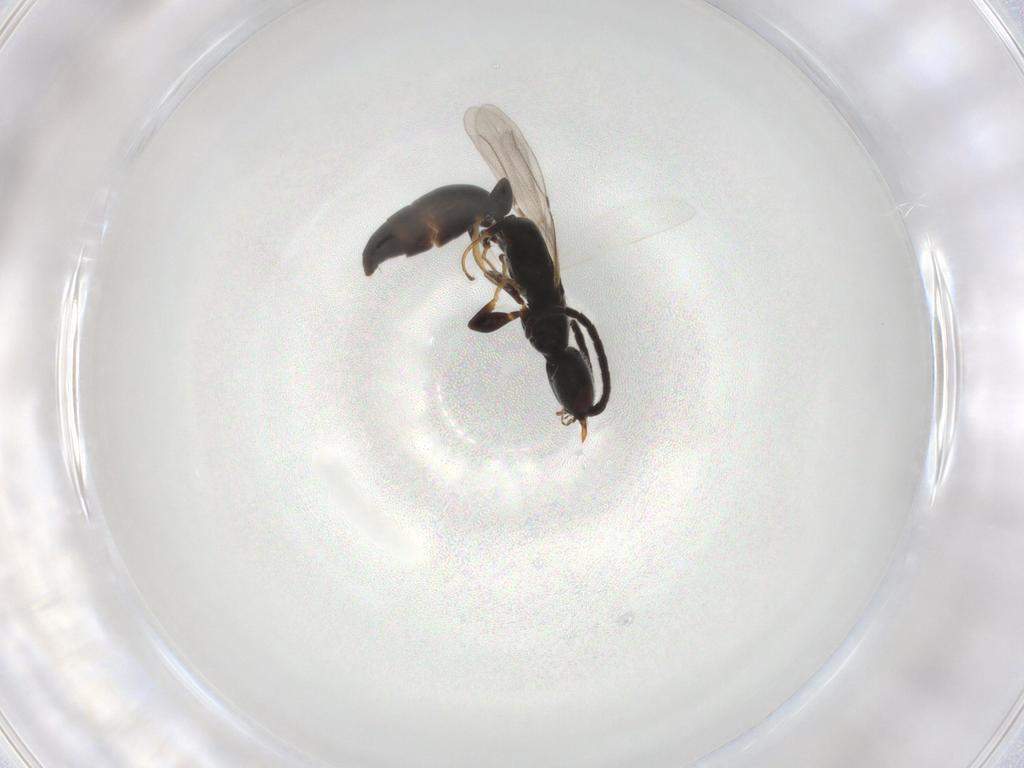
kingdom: Animalia
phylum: Arthropoda
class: Insecta
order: Hymenoptera
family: Bethylidae
